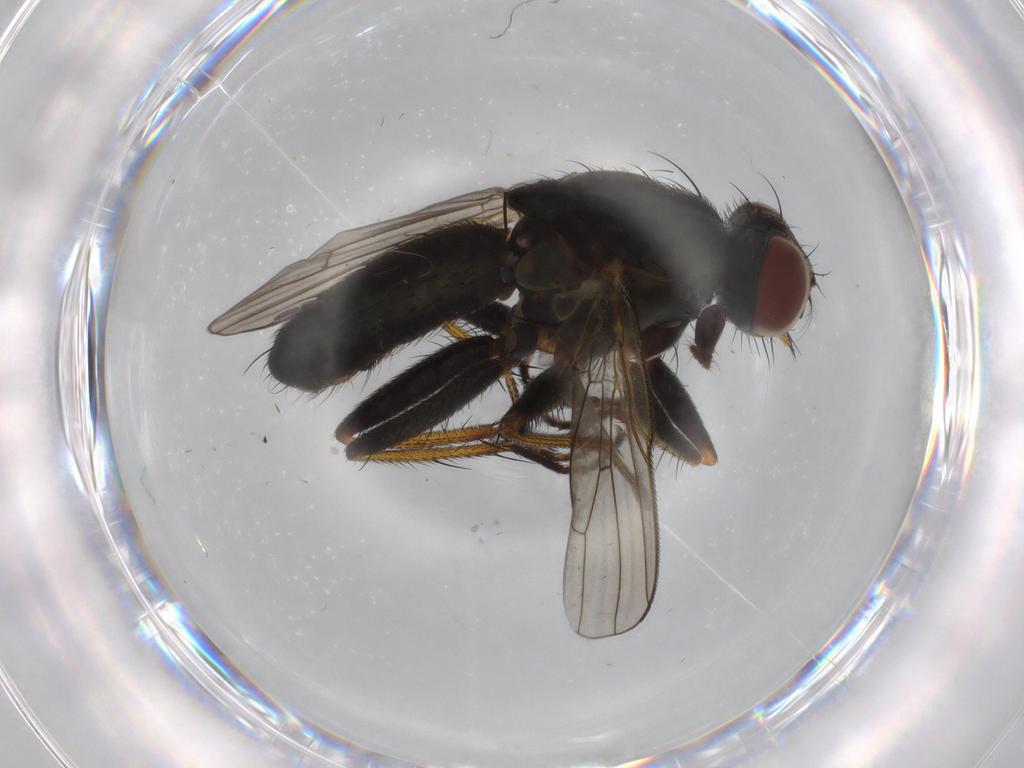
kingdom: Animalia
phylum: Arthropoda
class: Insecta
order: Diptera
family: Muscidae
